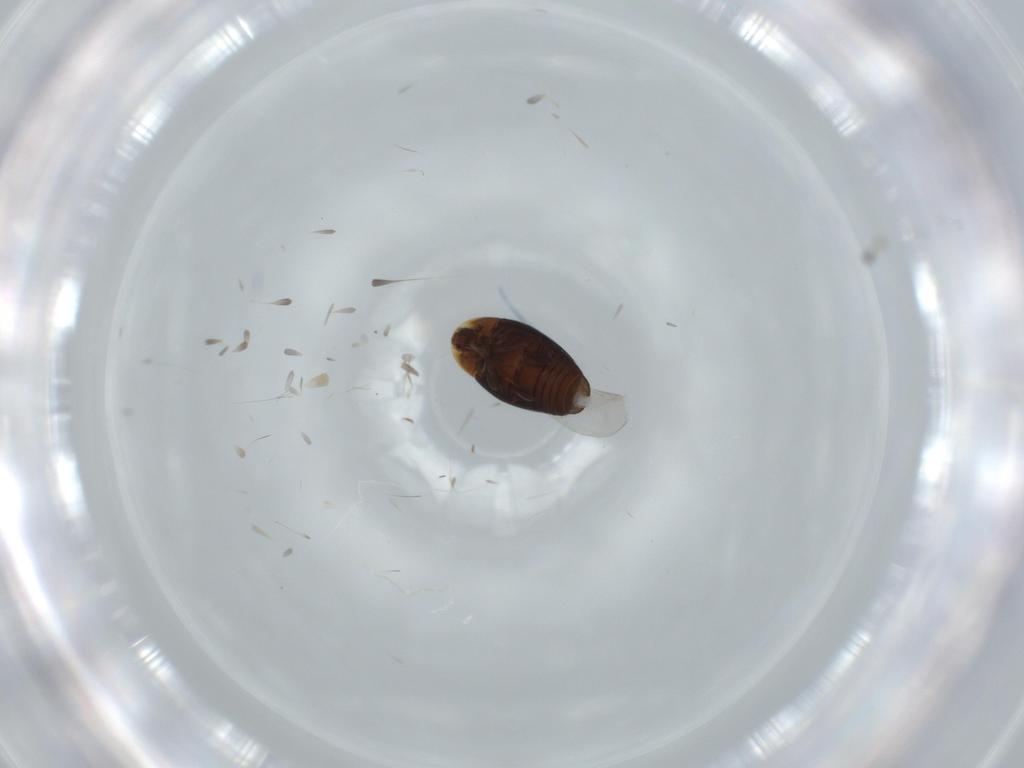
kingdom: Animalia
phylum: Arthropoda
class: Insecta
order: Coleoptera
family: Corylophidae
